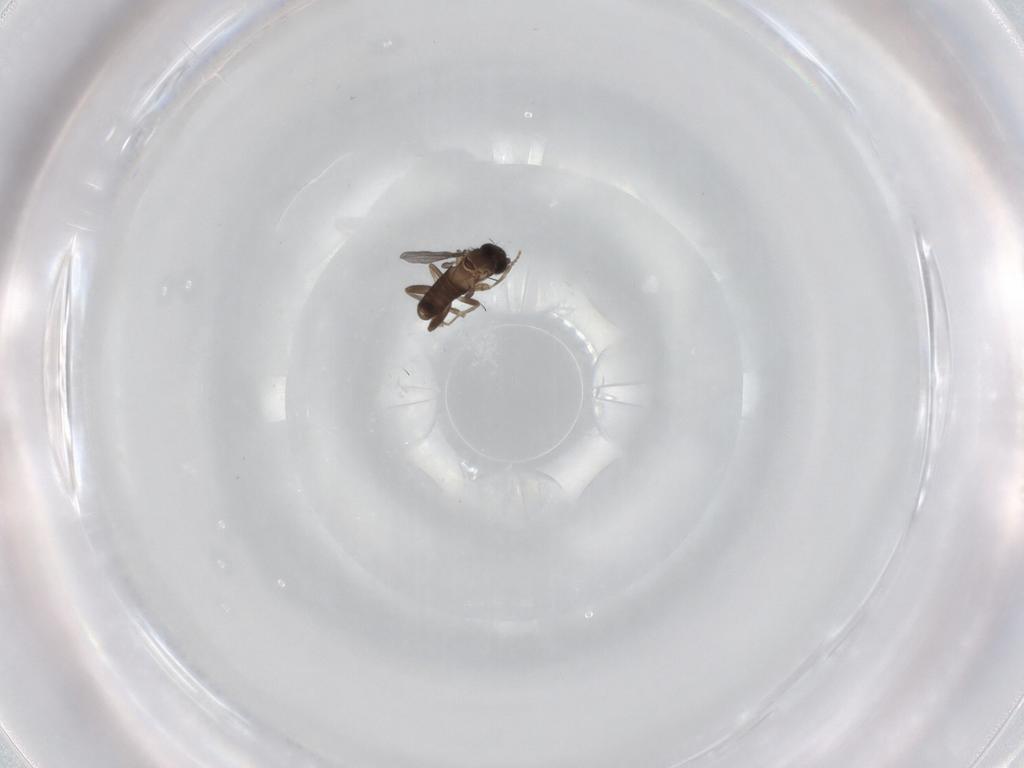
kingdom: Animalia
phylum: Arthropoda
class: Insecta
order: Diptera
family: Cecidomyiidae
